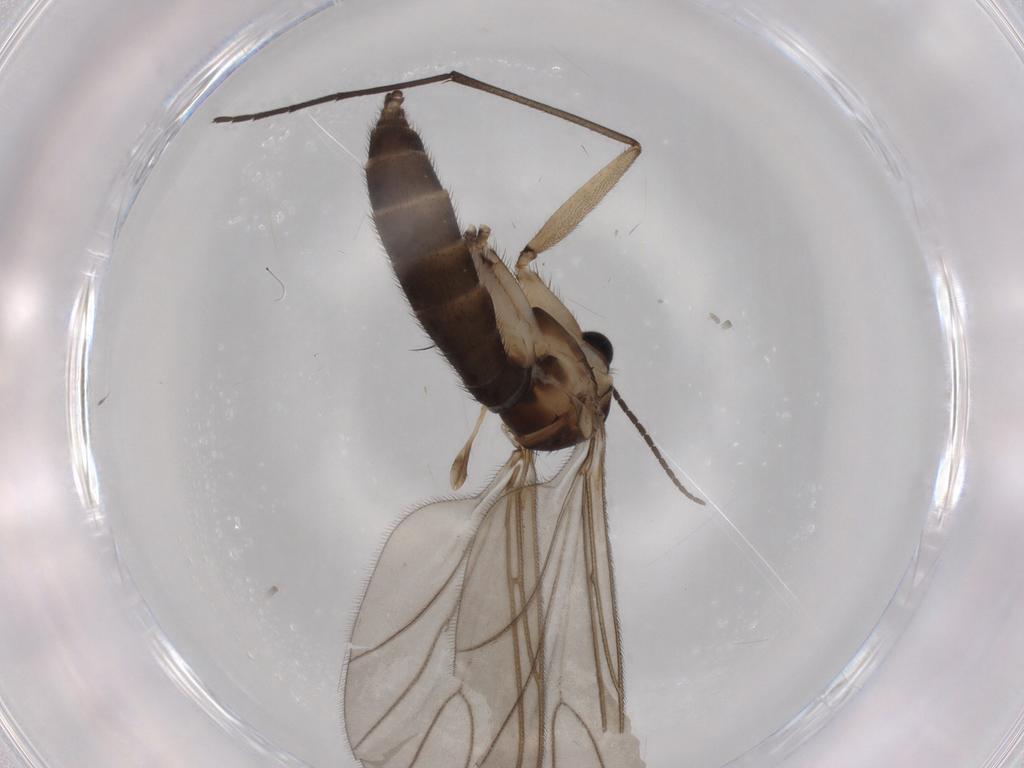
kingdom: Animalia
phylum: Arthropoda
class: Insecta
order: Diptera
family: Sciaridae
